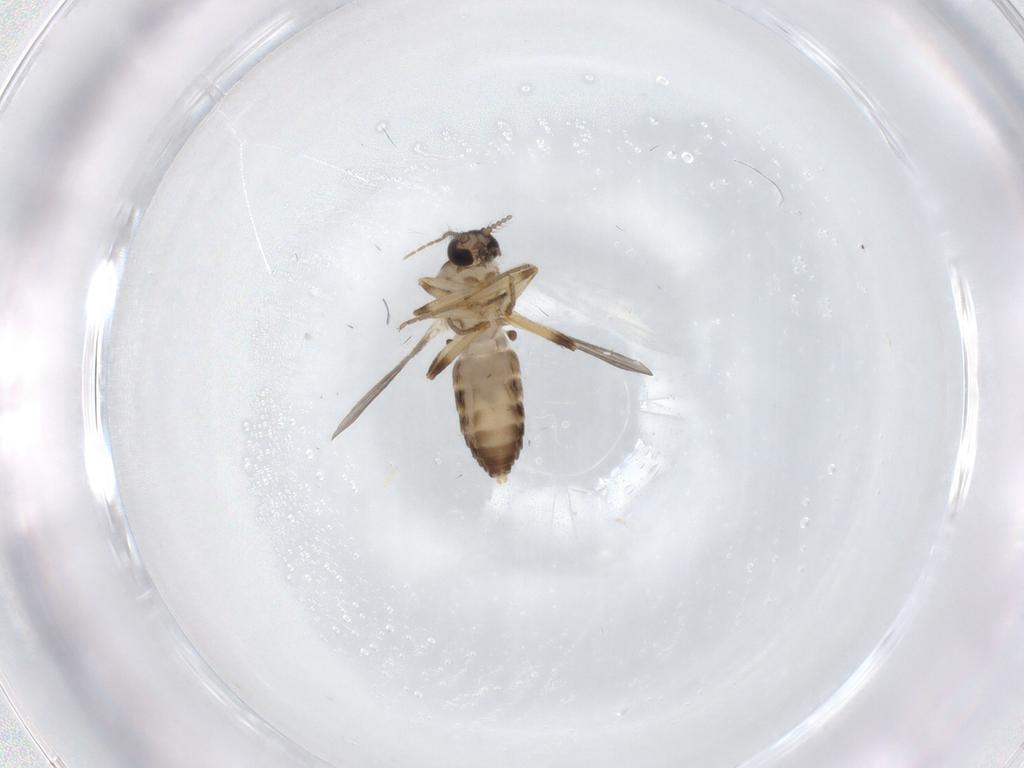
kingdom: Animalia
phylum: Arthropoda
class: Insecta
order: Diptera
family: Ceratopogonidae
